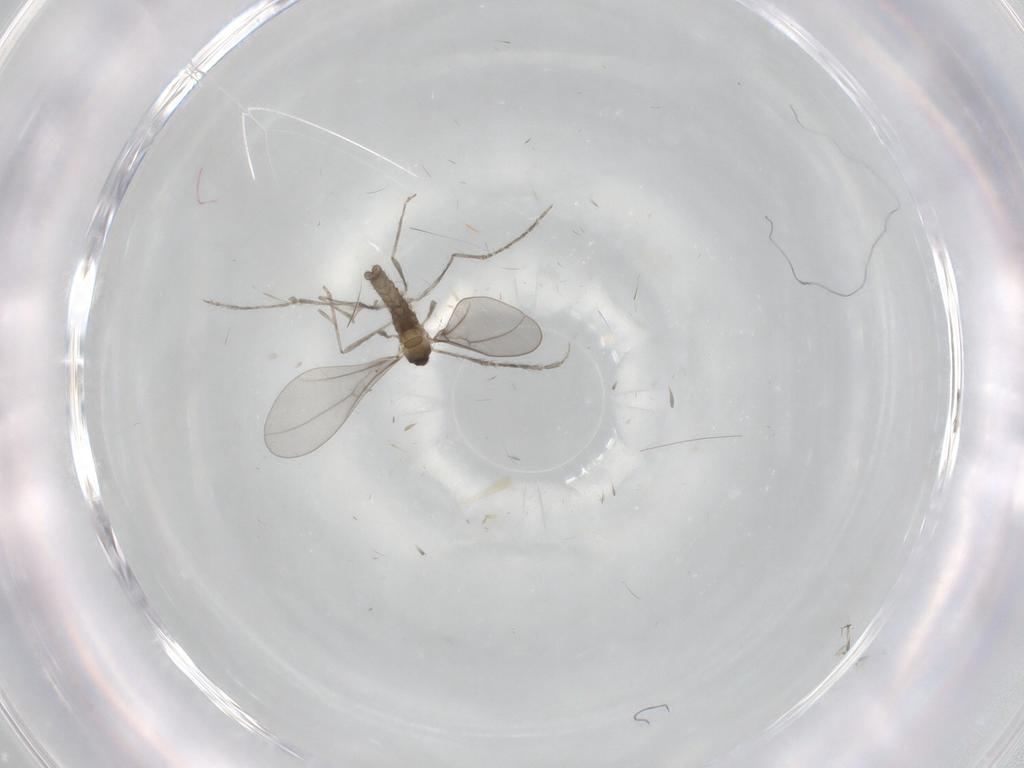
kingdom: Animalia
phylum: Arthropoda
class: Insecta
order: Diptera
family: Cecidomyiidae
